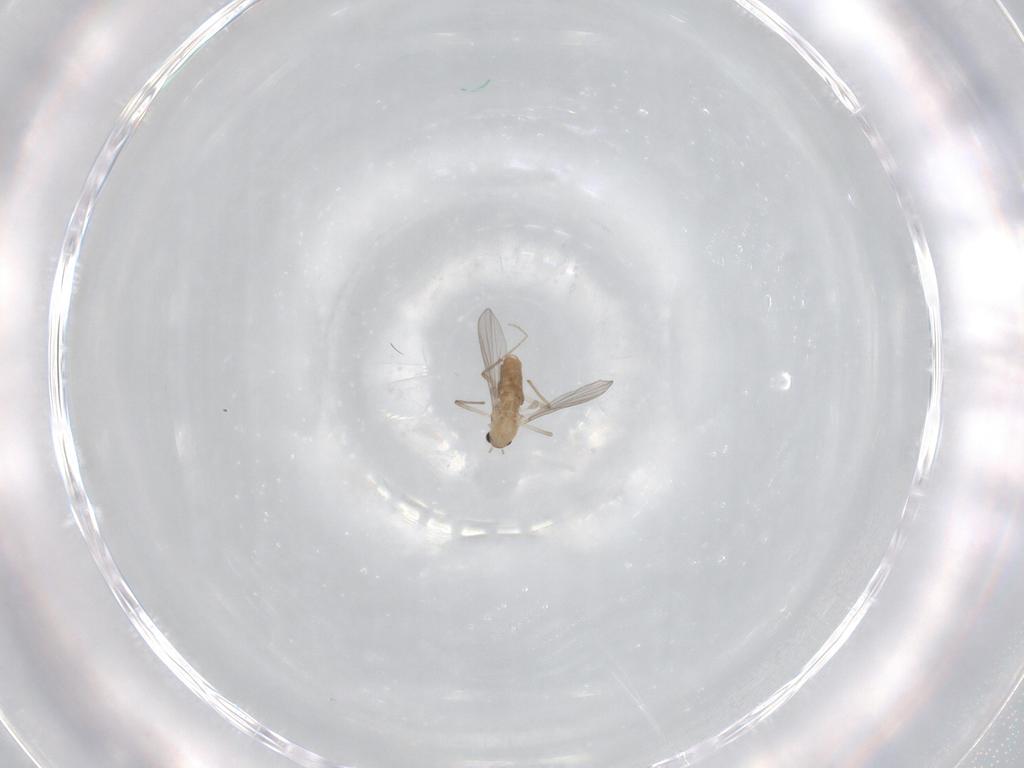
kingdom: Animalia
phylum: Arthropoda
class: Insecta
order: Diptera
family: Chironomidae
